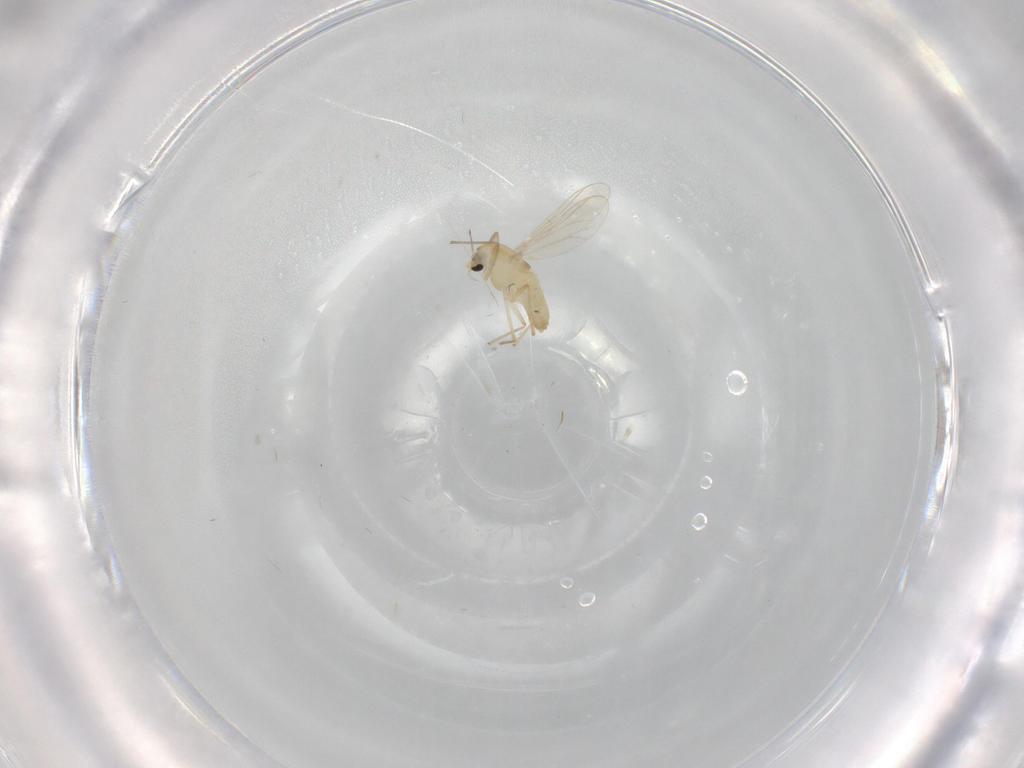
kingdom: Animalia
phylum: Arthropoda
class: Insecta
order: Diptera
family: Chironomidae
